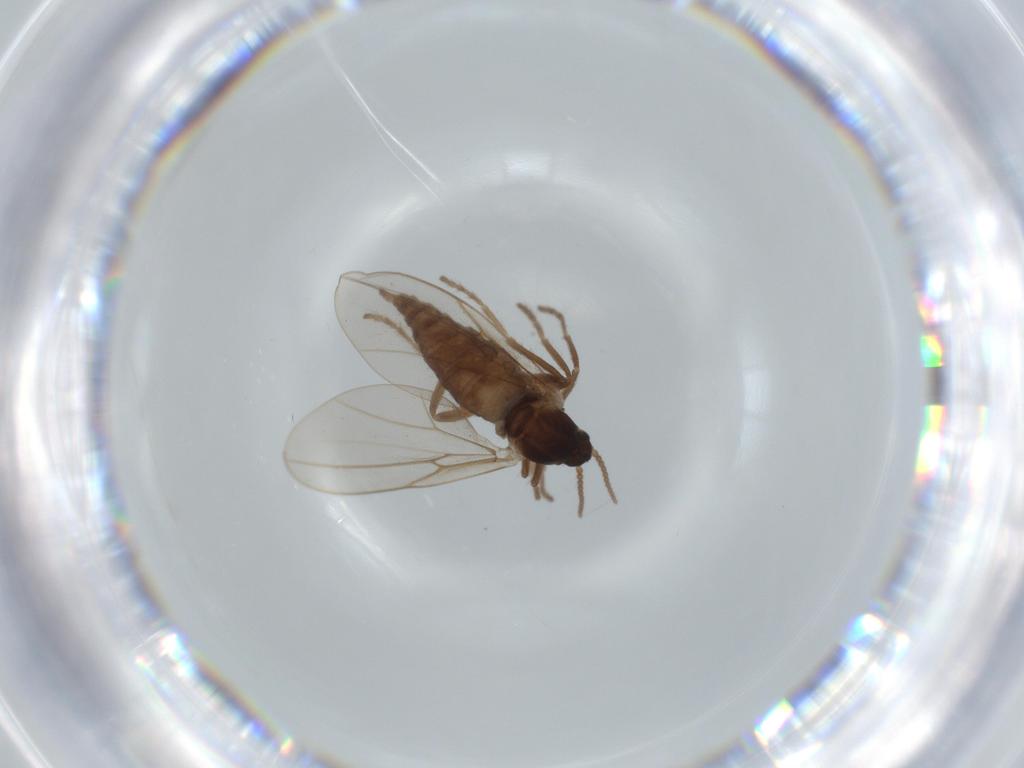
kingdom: Animalia
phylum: Arthropoda
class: Insecta
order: Diptera
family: Cecidomyiidae
